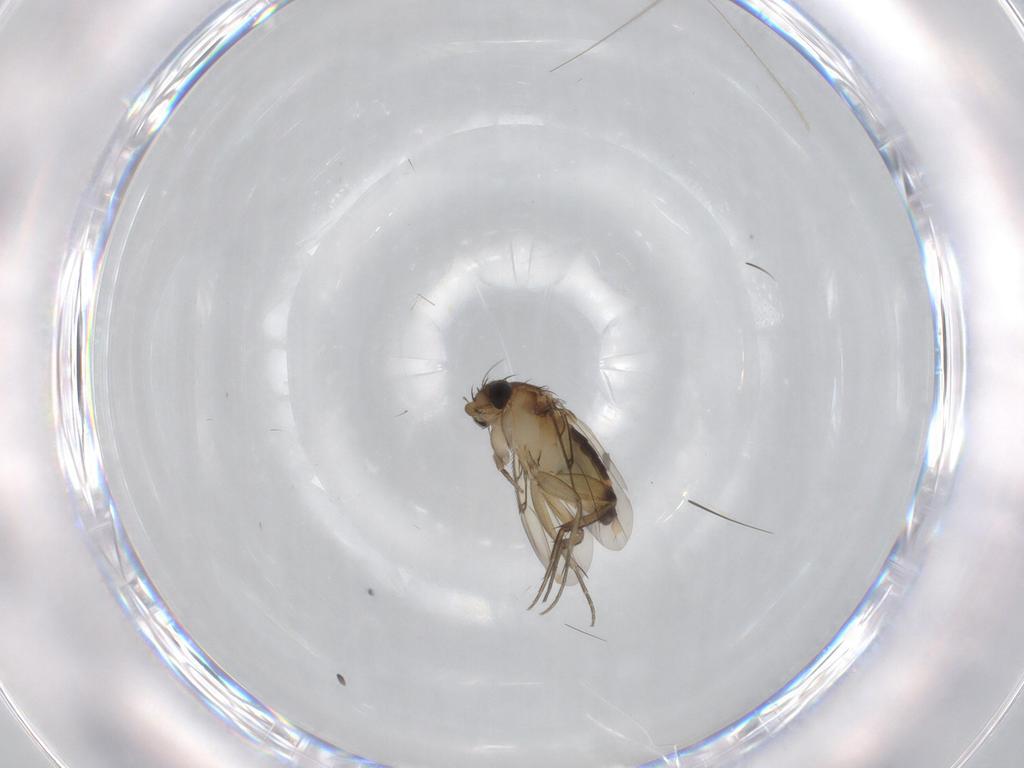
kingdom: Animalia
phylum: Arthropoda
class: Insecta
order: Diptera
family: Phoridae
